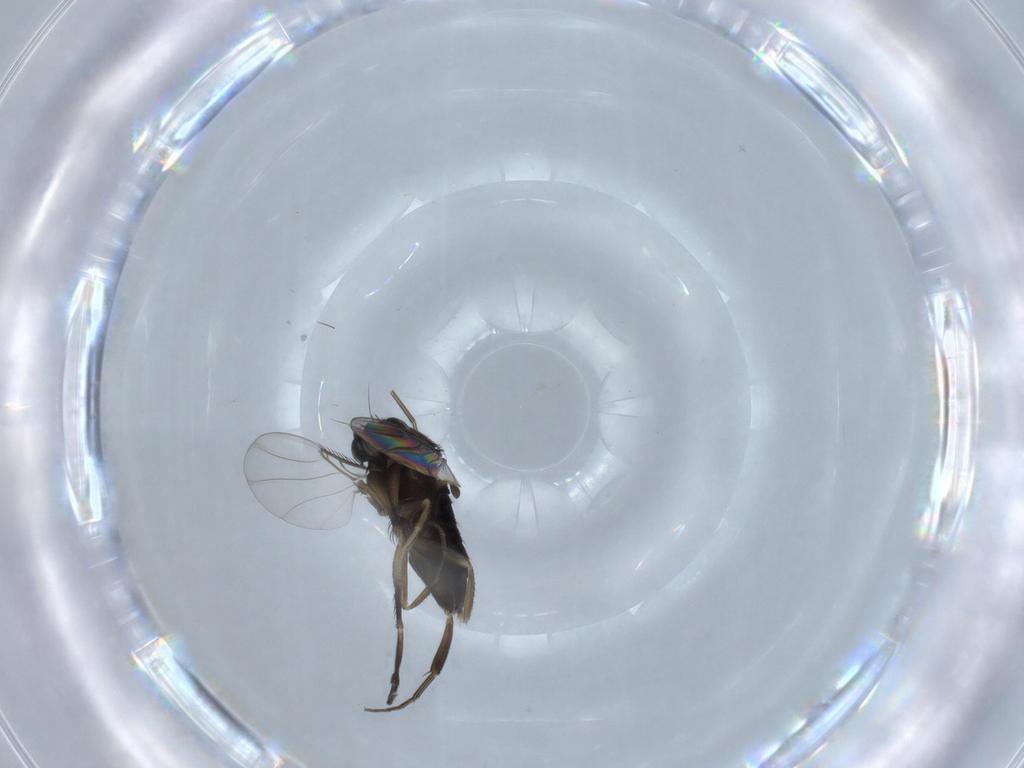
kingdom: Animalia
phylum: Arthropoda
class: Insecta
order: Diptera
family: Phoridae
